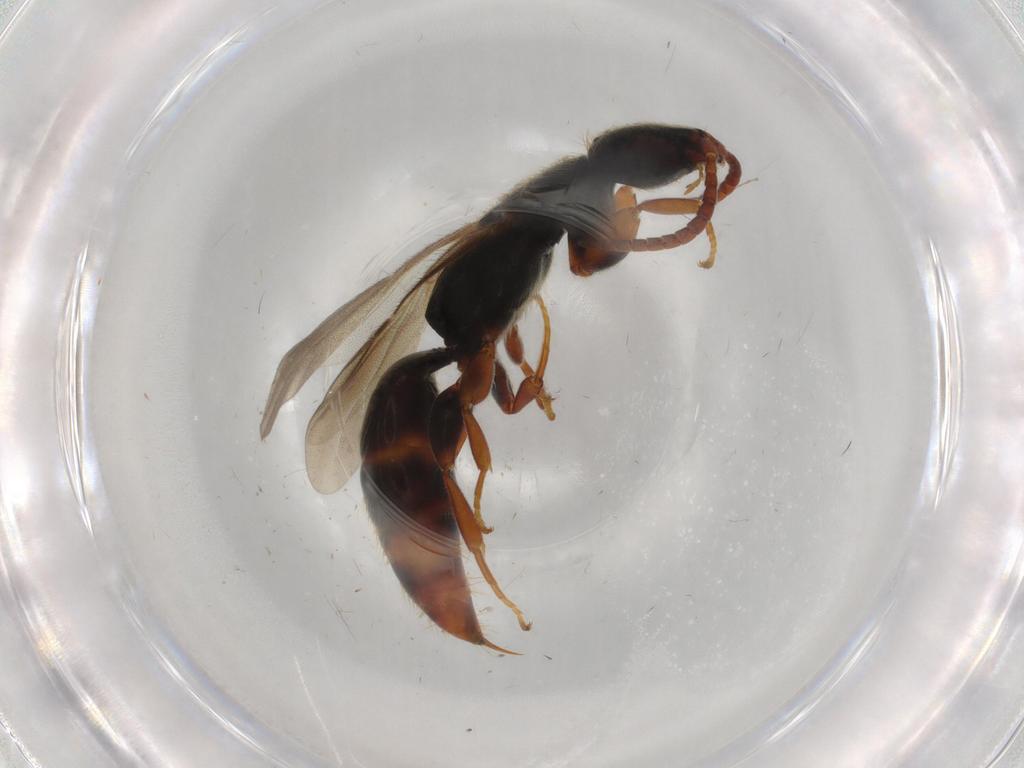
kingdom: Animalia
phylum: Arthropoda
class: Insecta
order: Hymenoptera
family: Bethylidae
